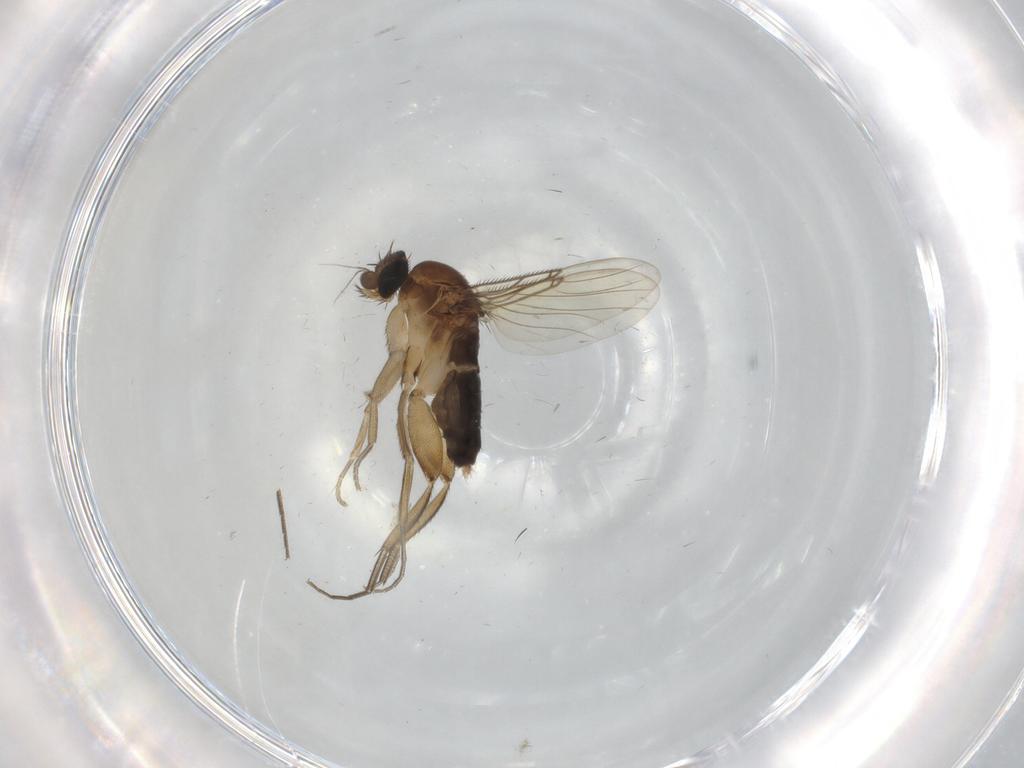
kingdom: Animalia
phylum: Arthropoda
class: Insecta
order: Diptera
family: Phoridae
